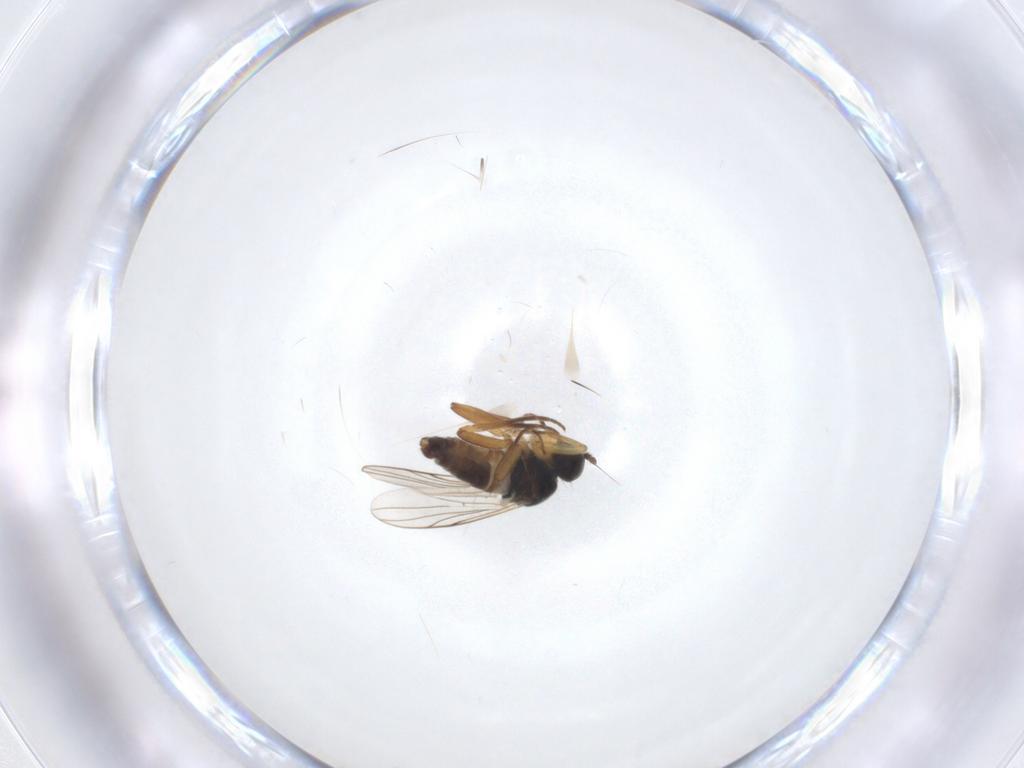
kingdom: Animalia
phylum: Arthropoda
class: Insecta
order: Diptera
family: Hybotidae
